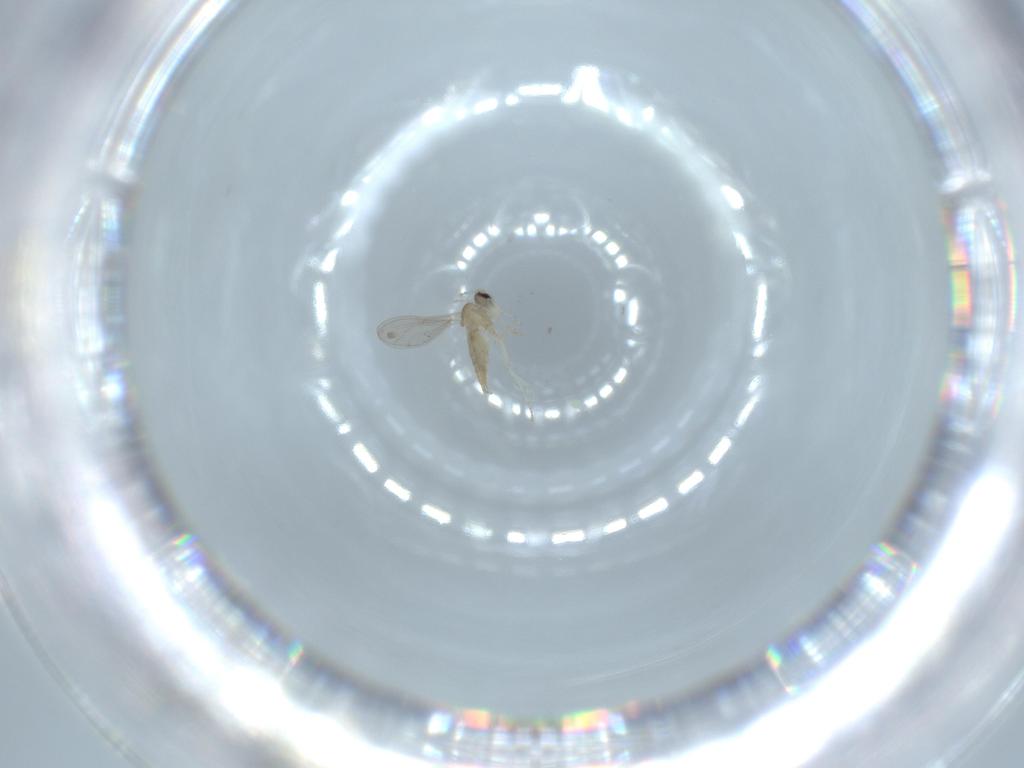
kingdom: Animalia
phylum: Arthropoda
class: Insecta
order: Diptera
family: Cecidomyiidae
